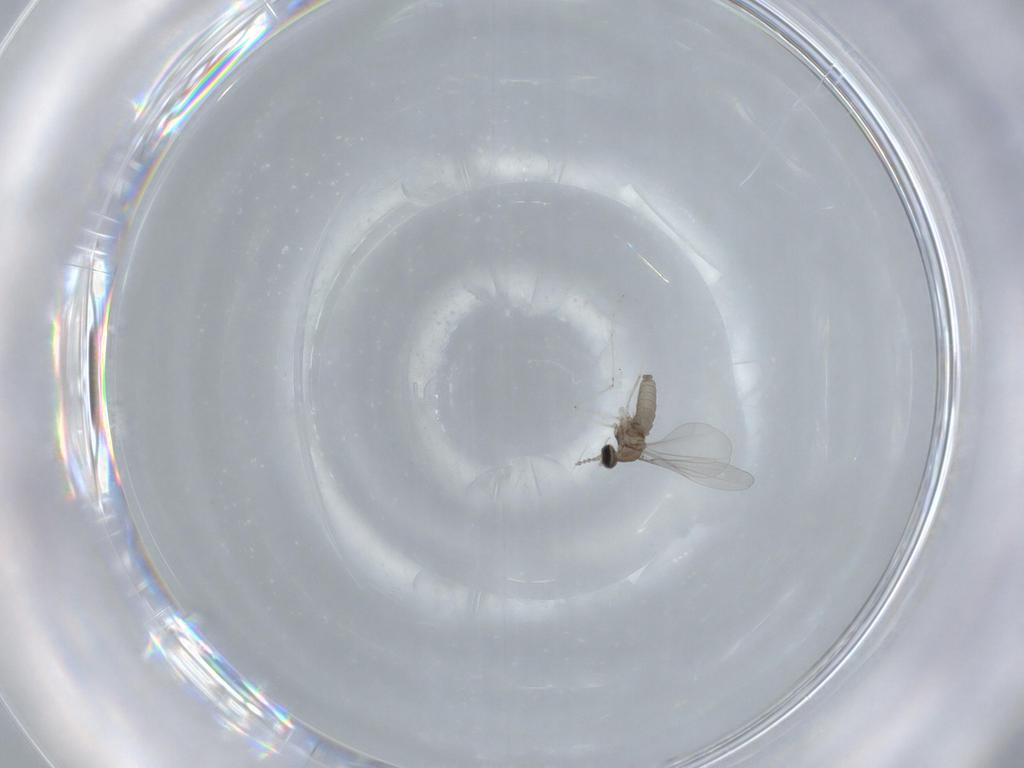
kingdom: Animalia
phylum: Arthropoda
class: Insecta
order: Diptera
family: Cecidomyiidae
